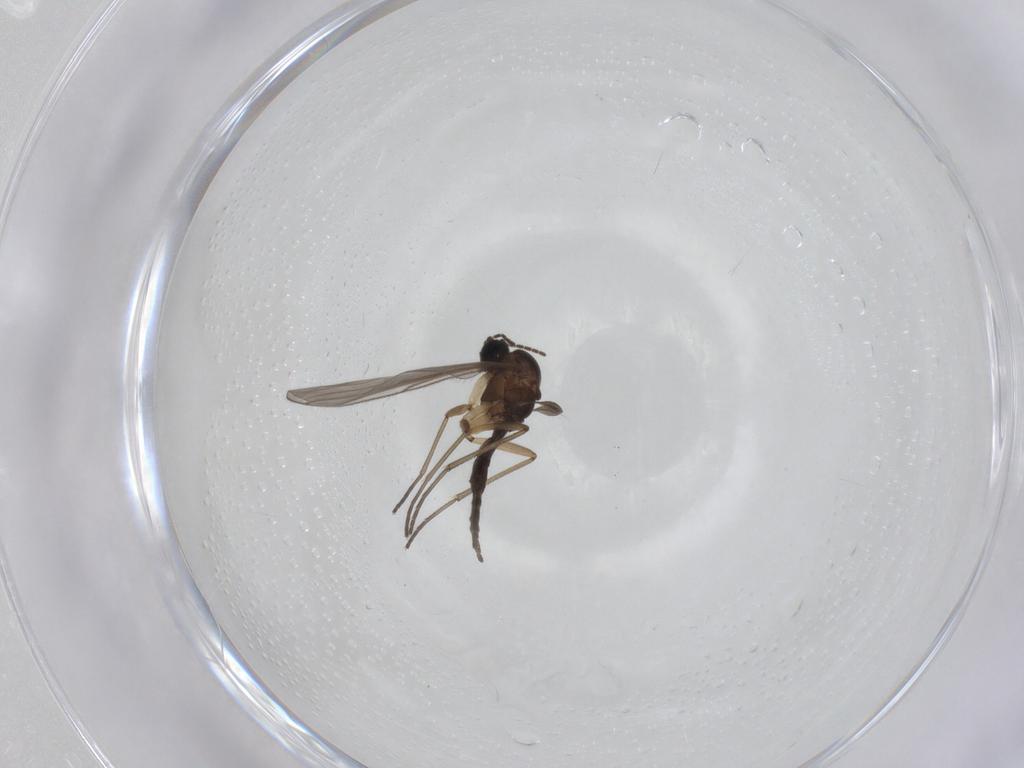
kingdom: Animalia
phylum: Arthropoda
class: Insecta
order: Diptera
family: Sciaridae
